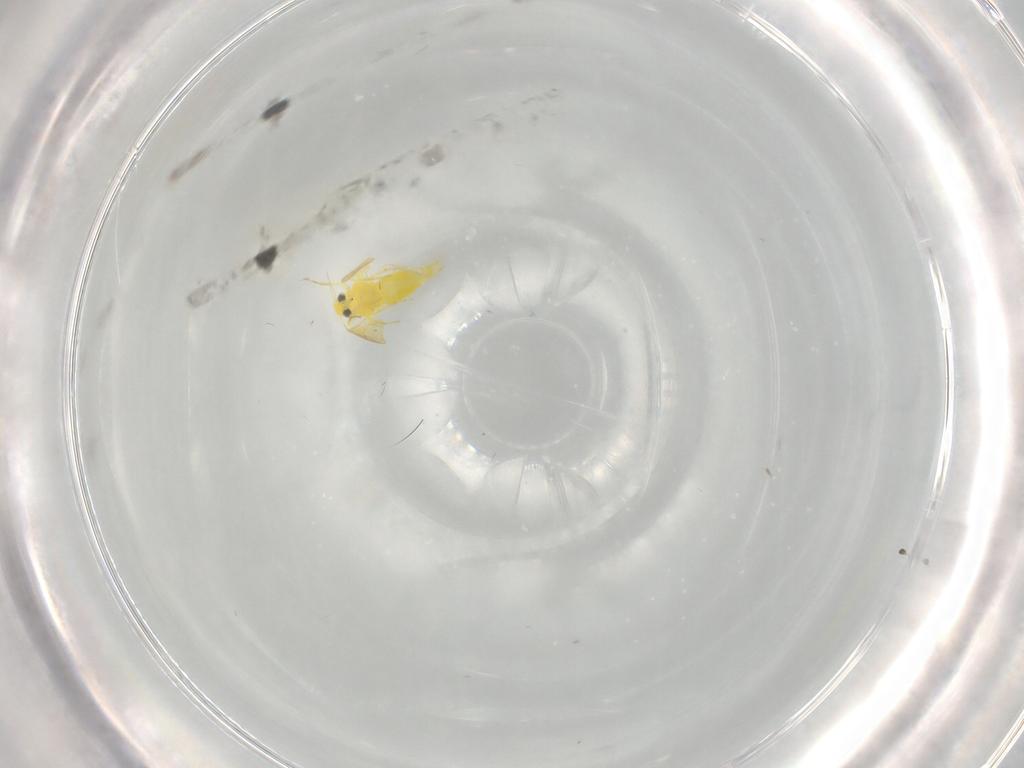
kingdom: Animalia
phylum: Arthropoda
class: Insecta
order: Hemiptera
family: Aleyrodidae
